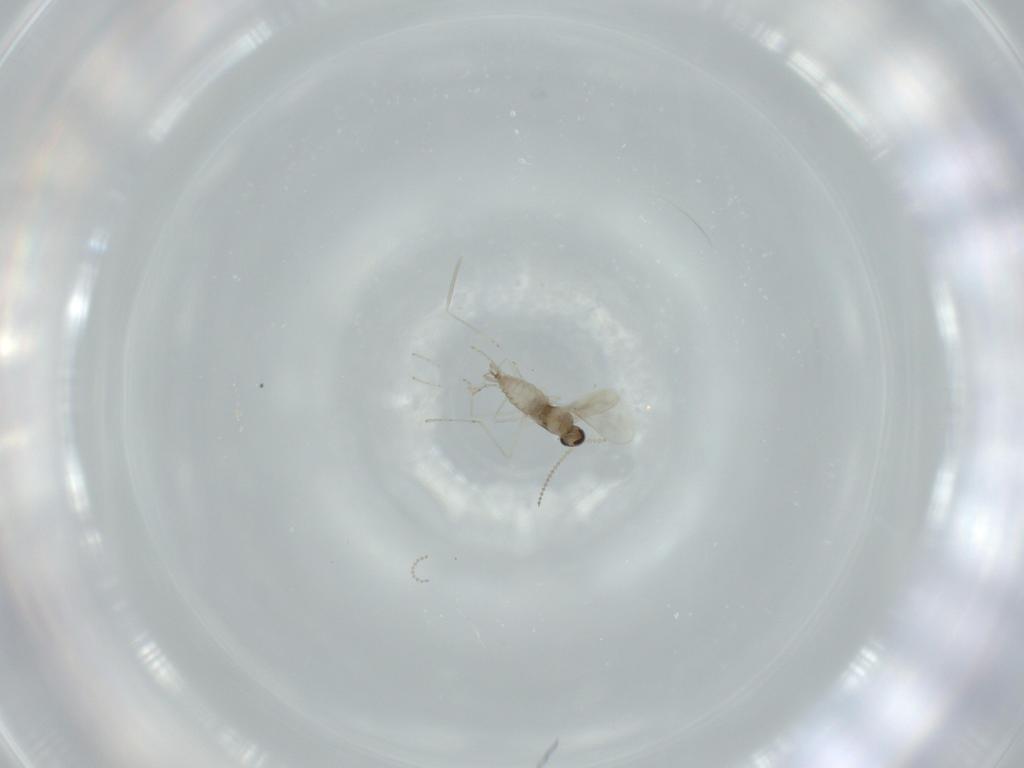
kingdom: Animalia
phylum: Arthropoda
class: Insecta
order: Diptera
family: Cecidomyiidae
